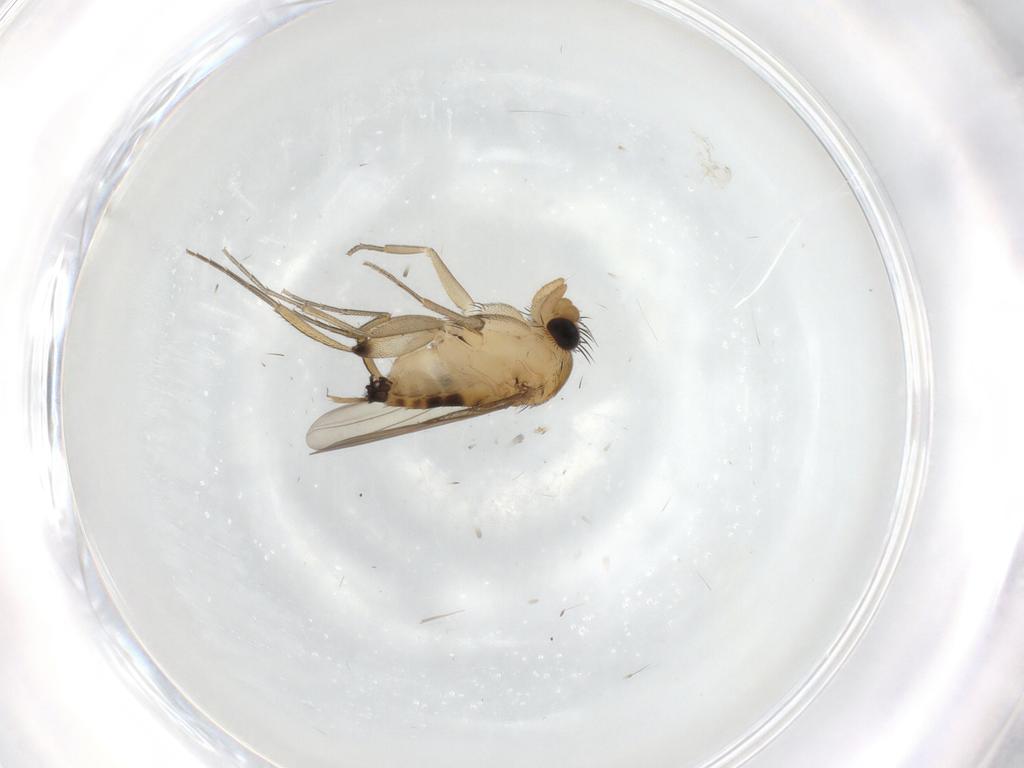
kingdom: Animalia
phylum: Arthropoda
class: Insecta
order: Diptera
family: Phoridae
